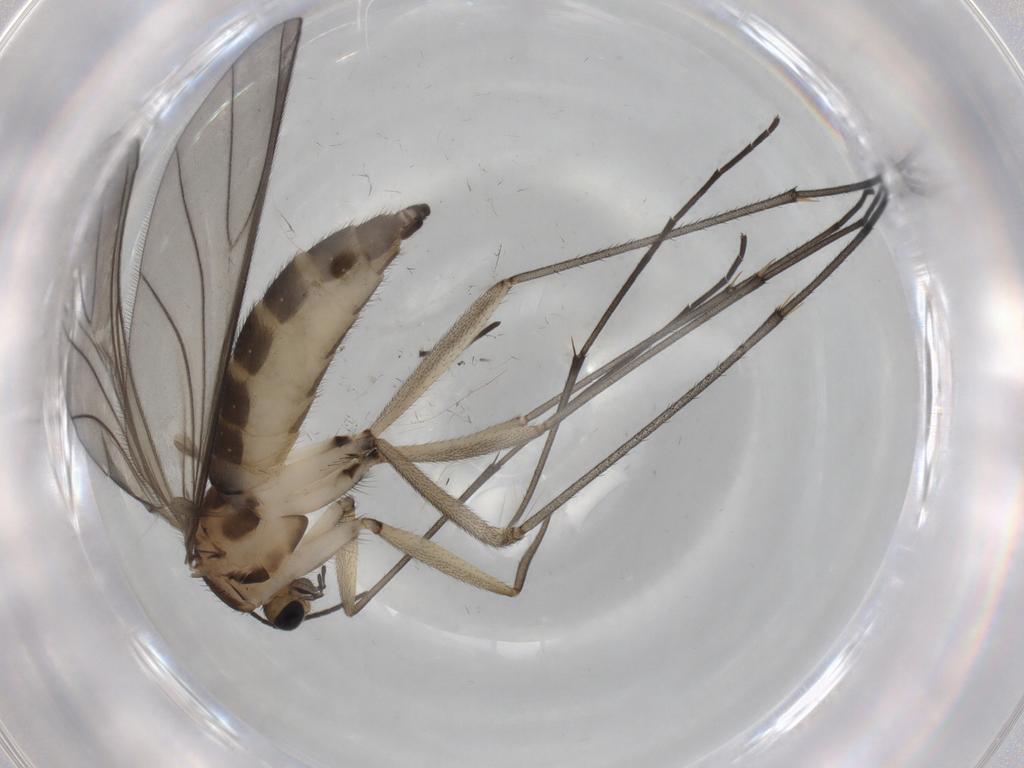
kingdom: Animalia
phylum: Arthropoda
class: Insecta
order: Diptera
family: Sciaridae
